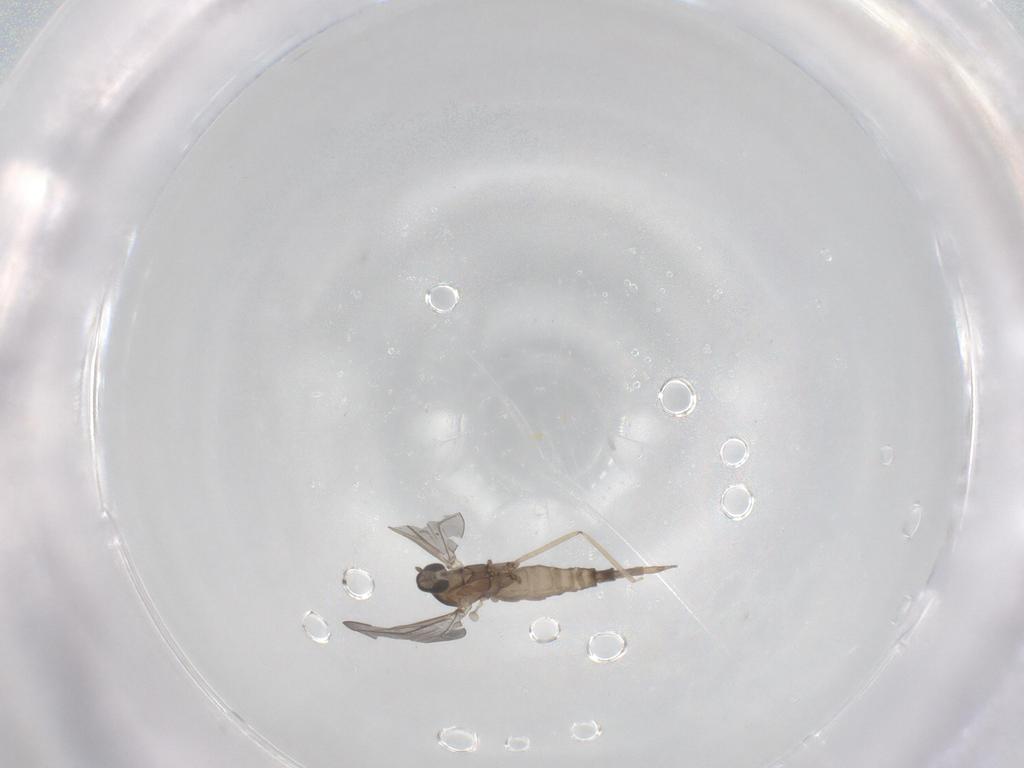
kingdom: Animalia
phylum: Arthropoda
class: Insecta
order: Diptera
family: Cecidomyiidae
